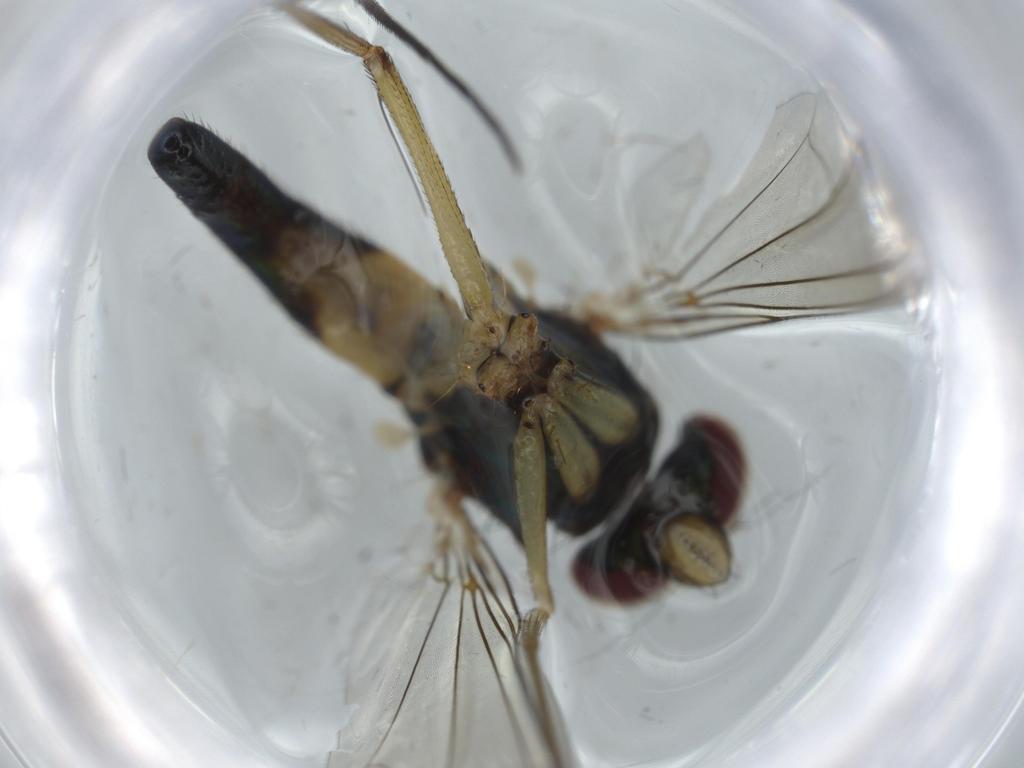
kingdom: Animalia
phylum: Arthropoda
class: Insecta
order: Diptera
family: Dolichopodidae
